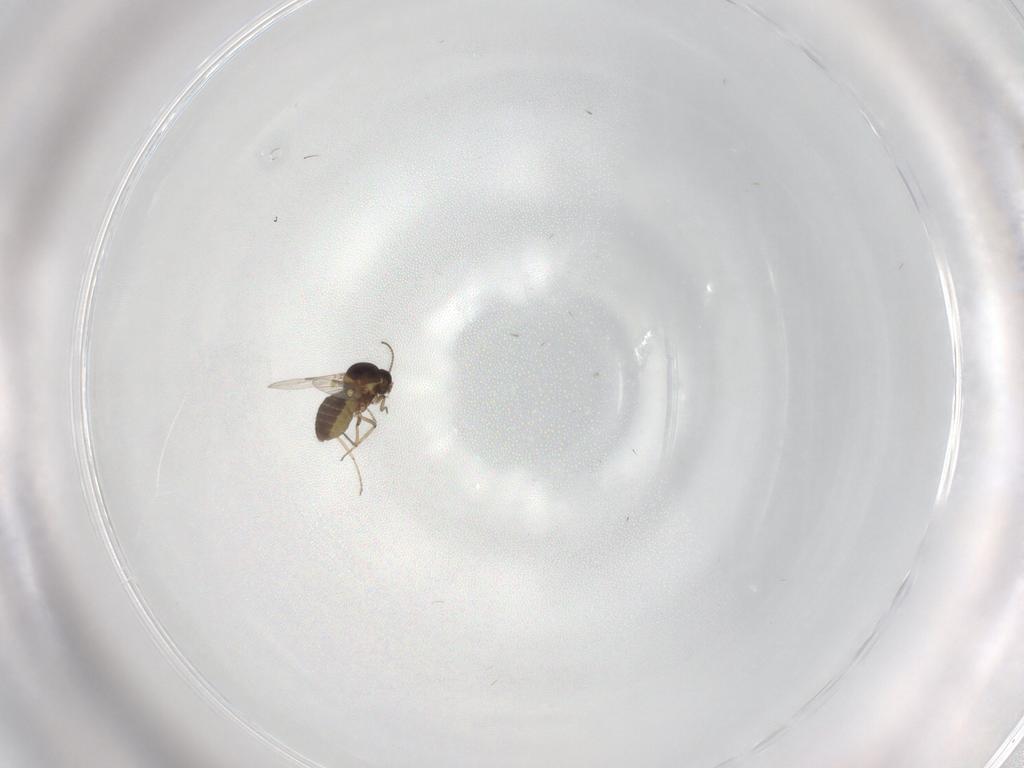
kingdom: Animalia
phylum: Arthropoda
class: Insecta
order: Diptera
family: Ceratopogonidae
